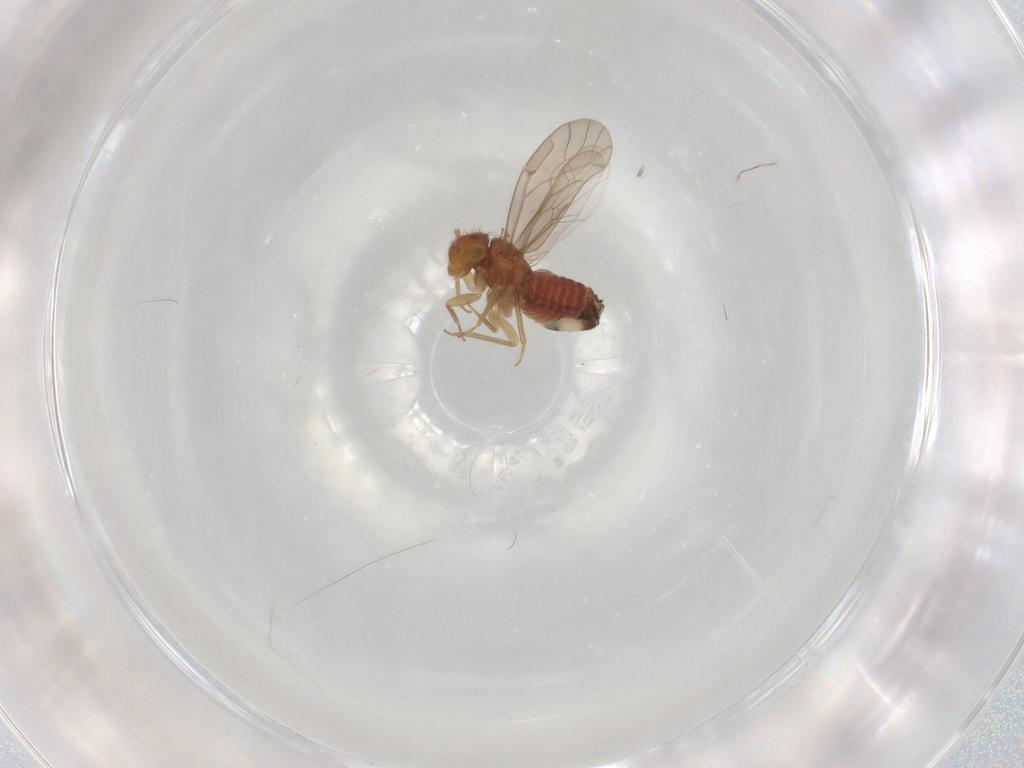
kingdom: Animalia
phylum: Arthropoda
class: Insecta
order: Psocodea
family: Ectopsocidae
